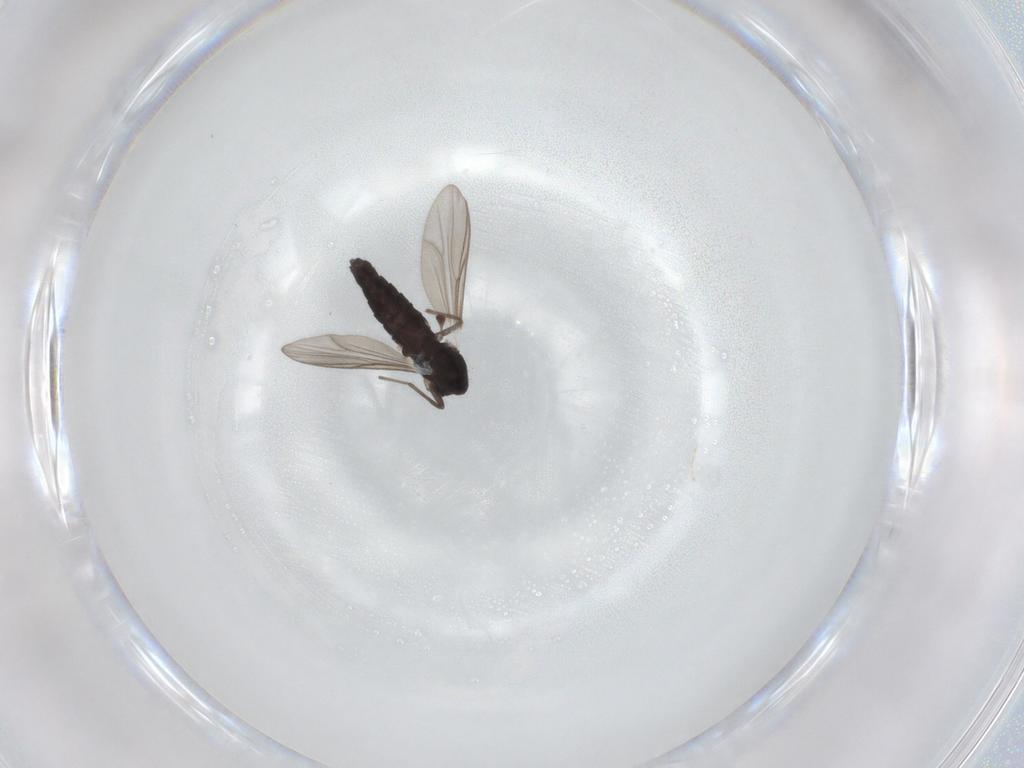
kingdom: Animalia
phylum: Arthropoda
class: Insecta
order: Diptera
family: Chironomidae
